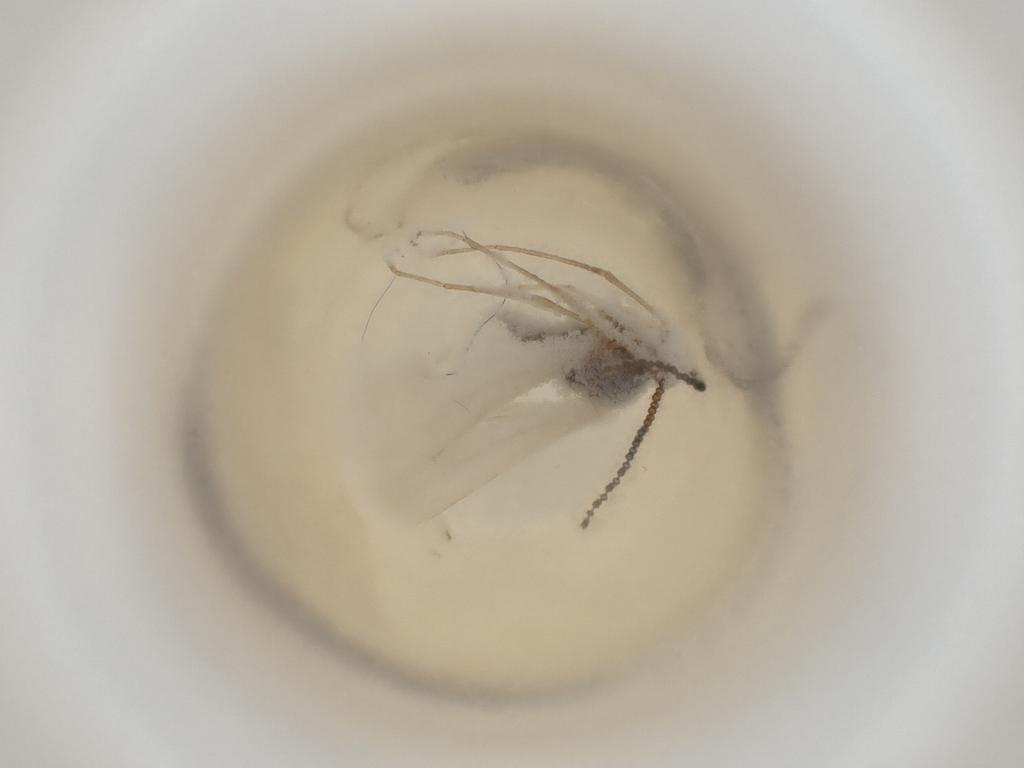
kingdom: Animalia
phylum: Arthropoda
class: Insecta
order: Diptera
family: Cecidomyiidae
